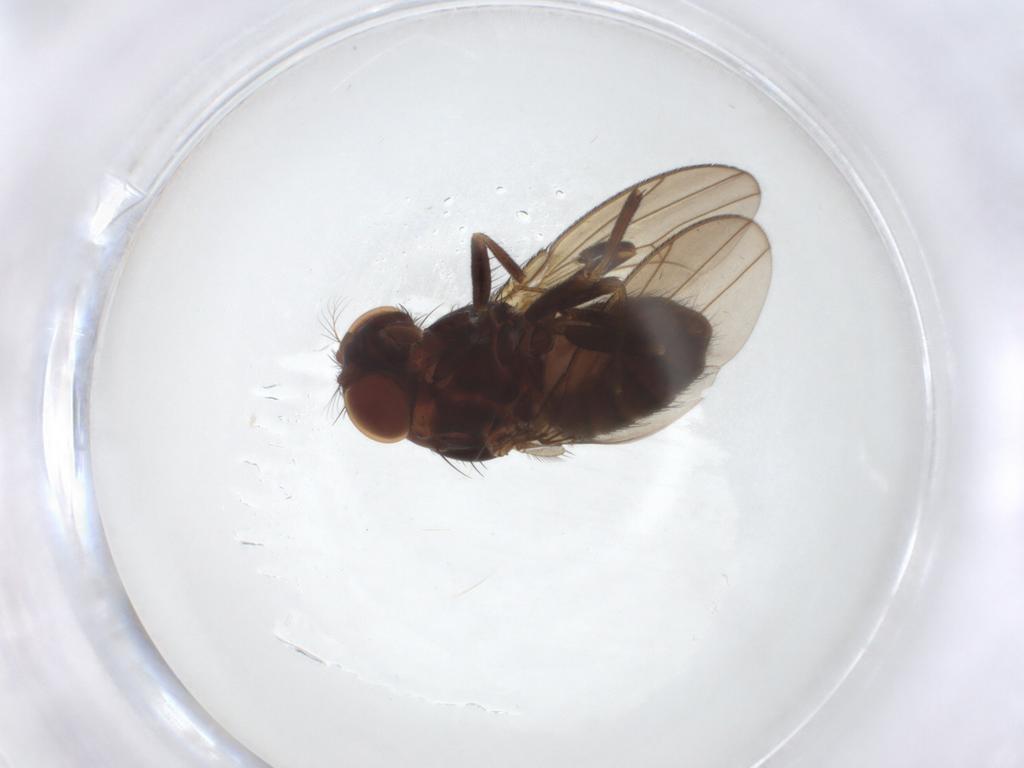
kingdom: Animalia
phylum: Arthropoda
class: Insecta
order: Diptera
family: Drosophilidae
